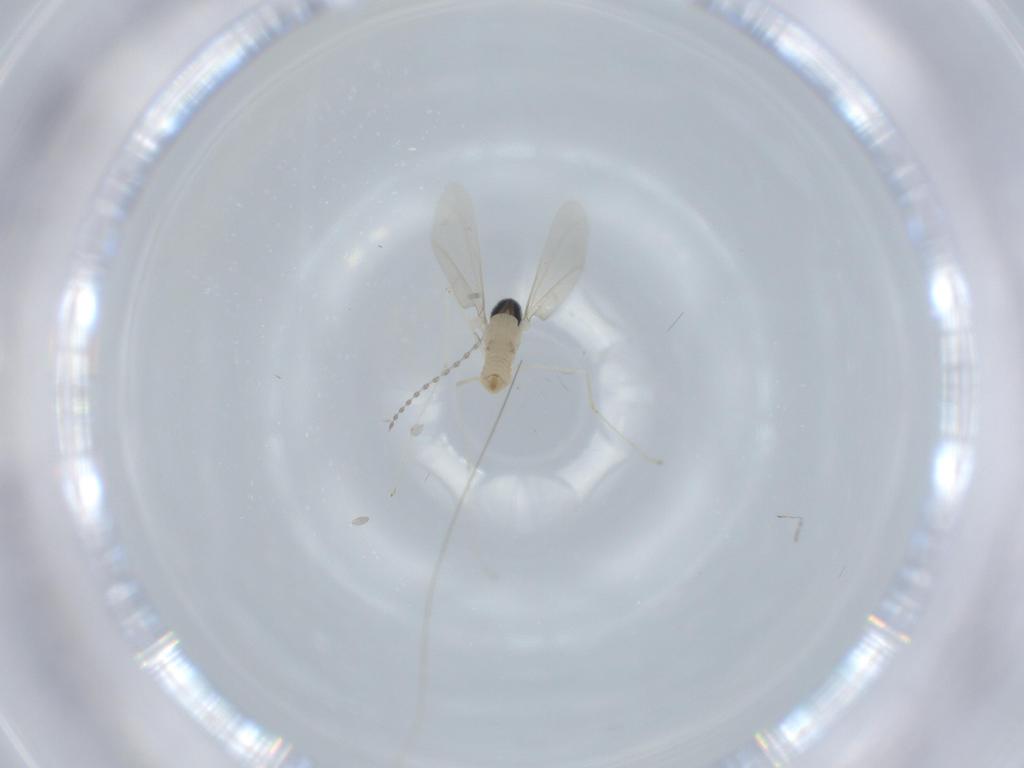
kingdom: Animalia
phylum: Arthropoda
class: Insecta
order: Diptera
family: Cecidomyiidae
